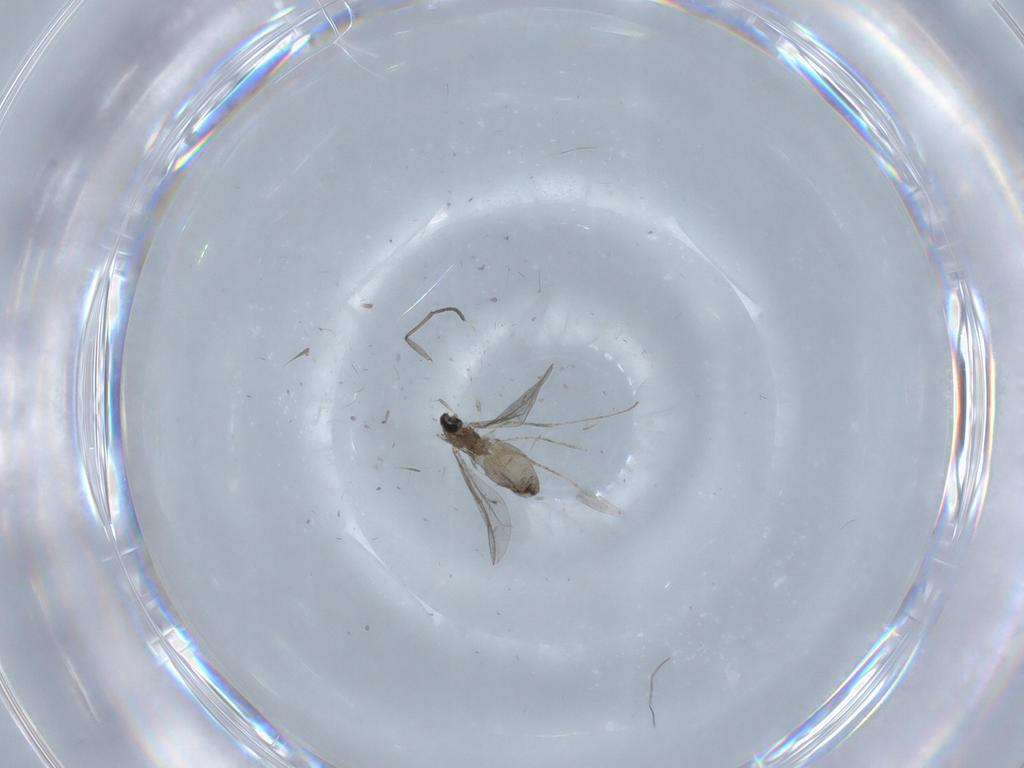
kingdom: Animalia
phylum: Arthropoda
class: Insecta
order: Diptera
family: Cecidomyiidae
